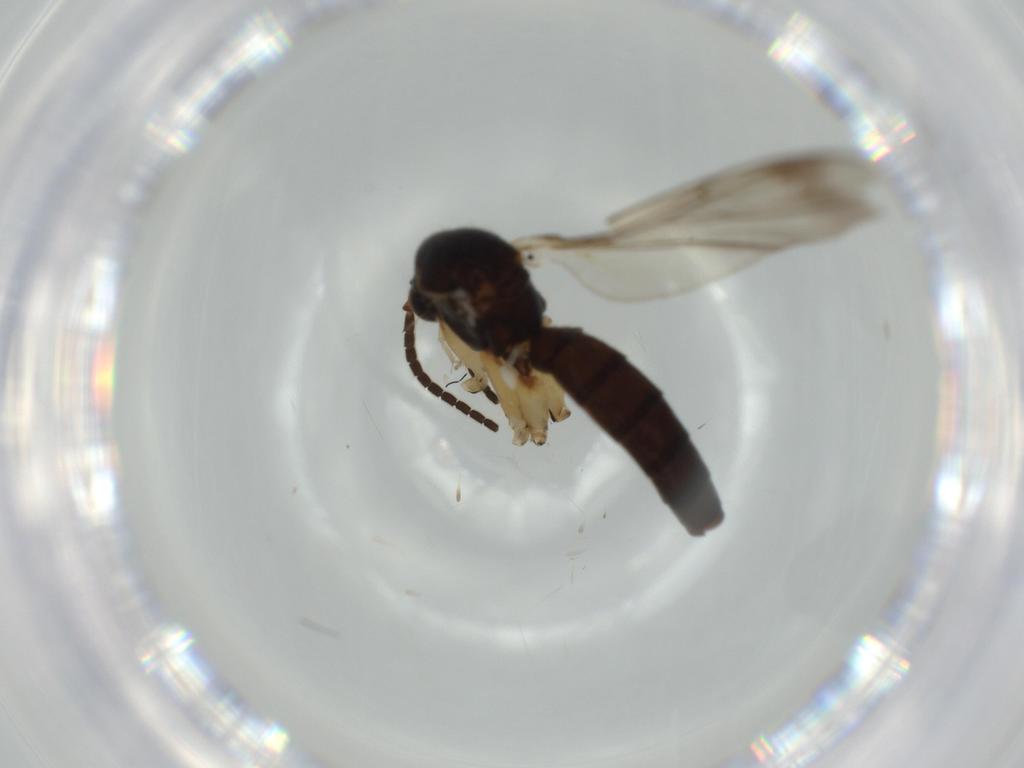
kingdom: Animalia
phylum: Arthropoda
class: Insecta
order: Diptera
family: Mycetophilidae
